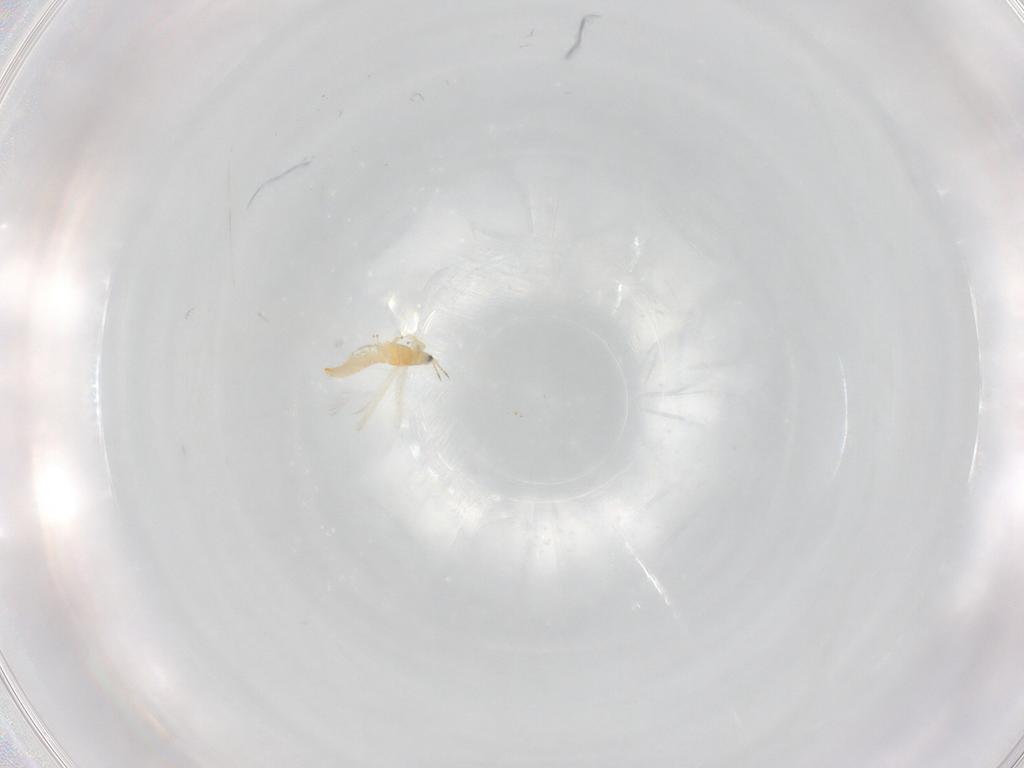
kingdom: Animalia
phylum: Arthropoda
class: Insecta
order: Thysanoptera
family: Thripidae
